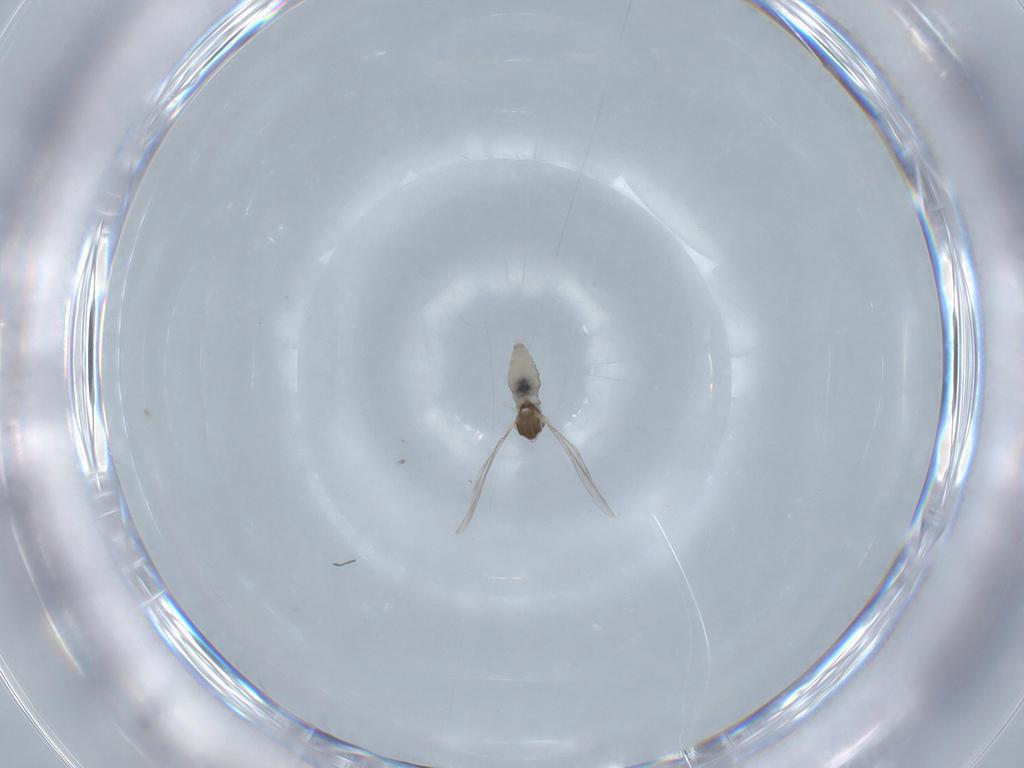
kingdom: Animalia
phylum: Arthropoda
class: Insecta
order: Diptera
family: Cecidomyiidae
